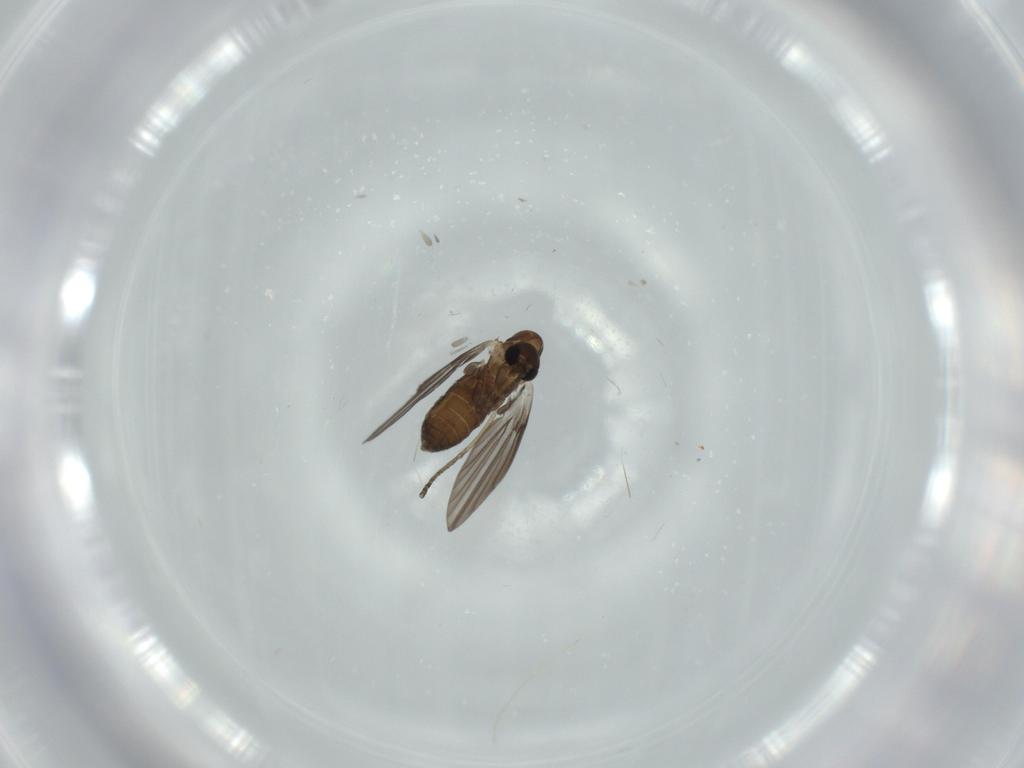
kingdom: Animalia
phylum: Arthropoda
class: Insecta
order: Diptera
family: Psychodidae
